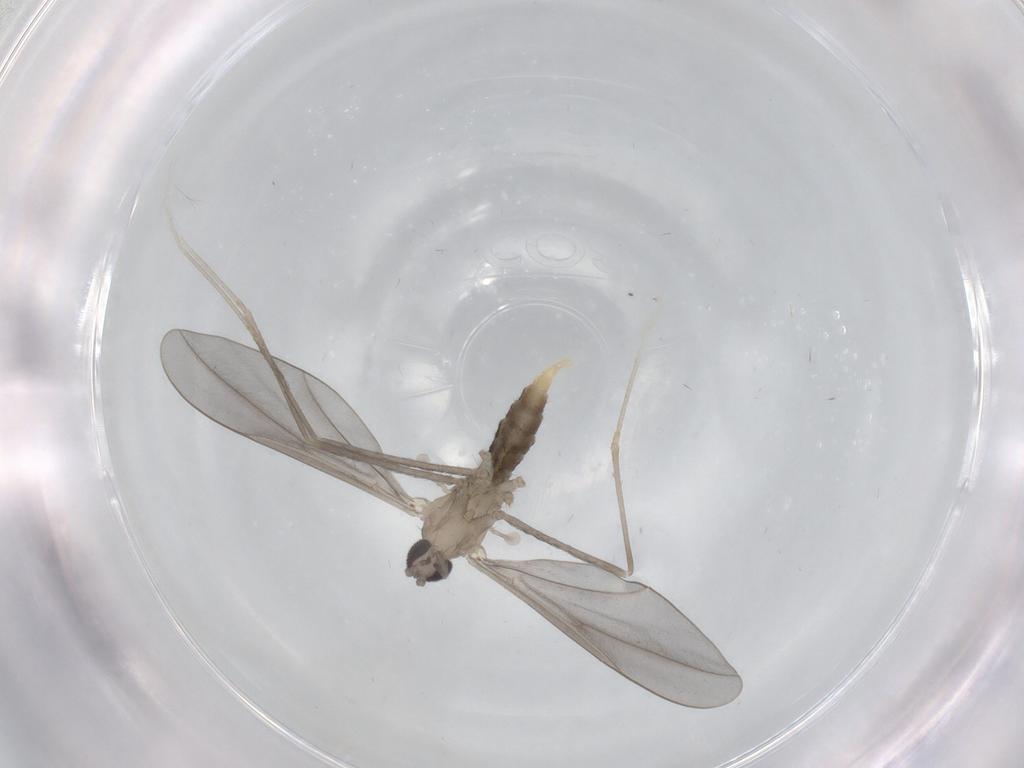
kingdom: Animalia
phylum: Arthropoda
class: Insecta
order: Diptera
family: Cecidomyiidae
